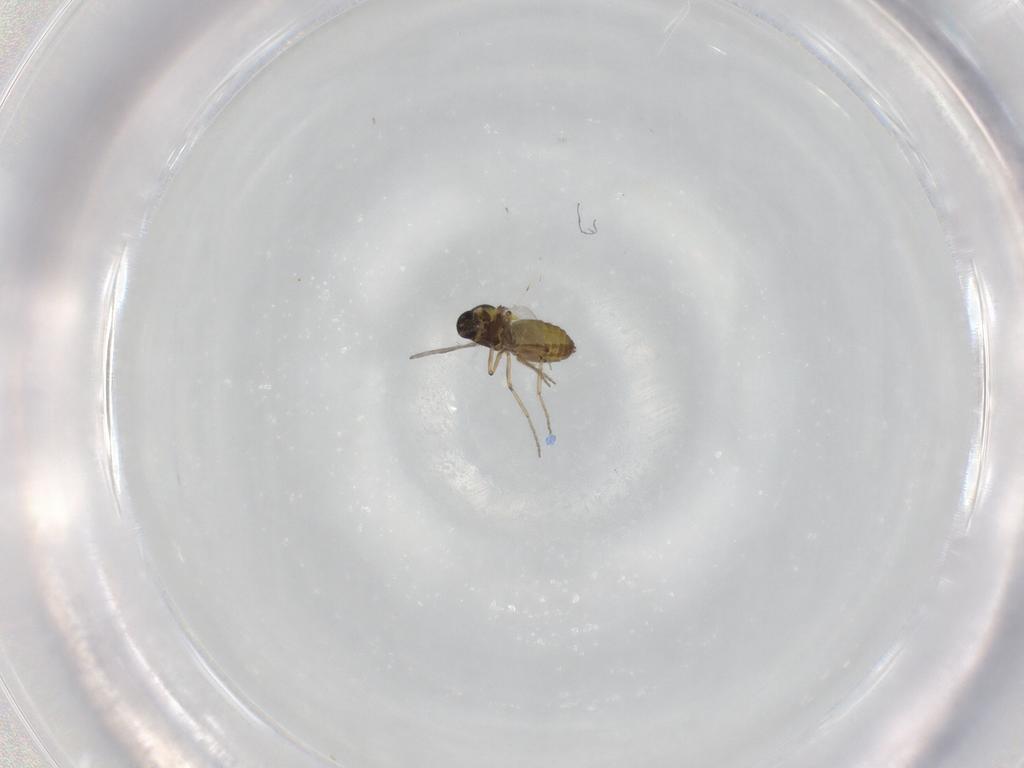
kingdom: Animalia
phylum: Arthropoda
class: Insecta
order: Diptera
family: Ceratopogonidae
